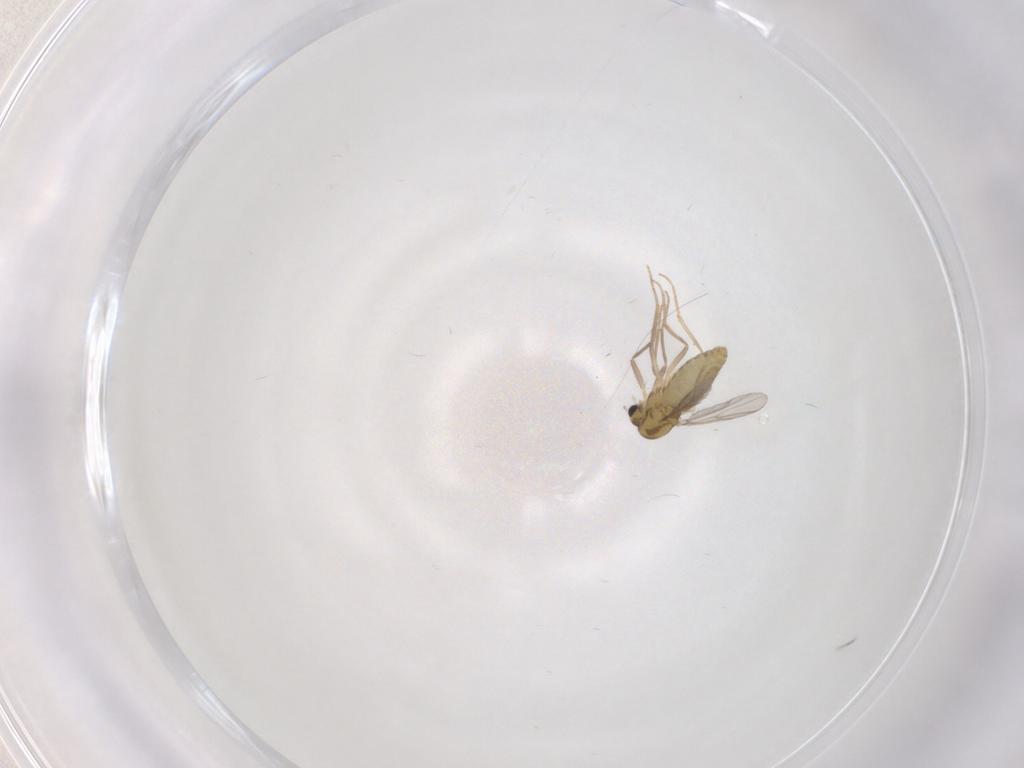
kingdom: Animalia
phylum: Arthropoda
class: Insecta
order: Diptera
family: Chironomidae
